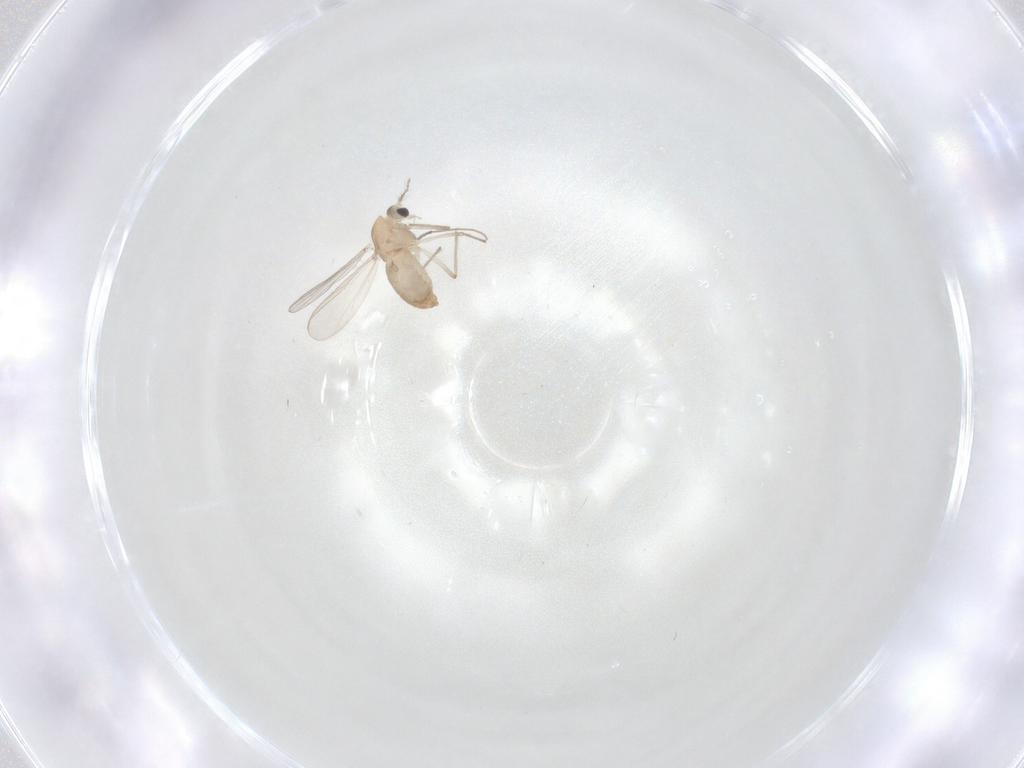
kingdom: Animalia
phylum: Arthropoda
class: Insecta
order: Diptera
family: Chironomidae
